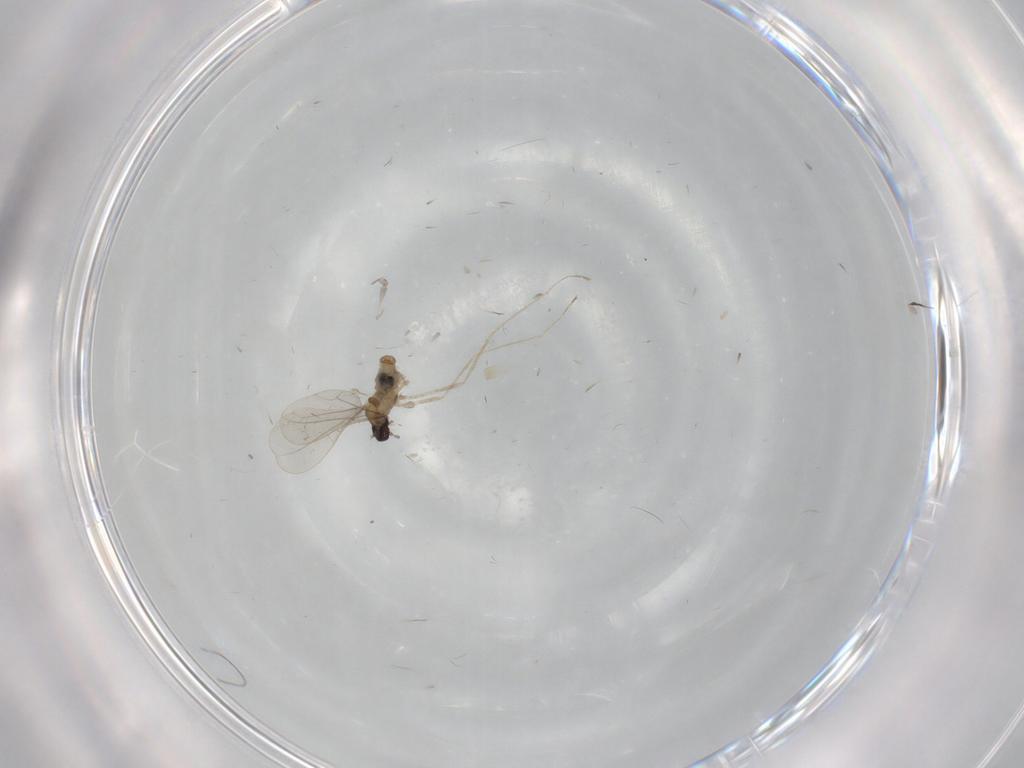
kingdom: Animalia
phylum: Arthropoda
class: Insecta
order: Diptera
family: Cecidomyiidae
